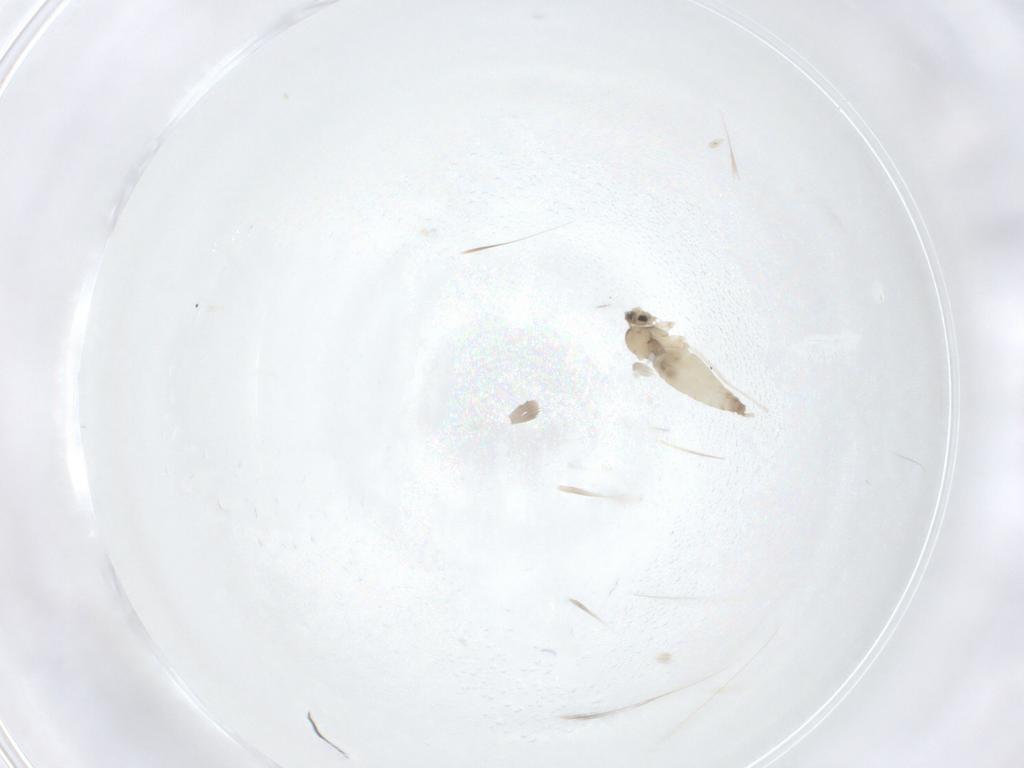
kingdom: Animalia
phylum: Arthropoda
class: Insecta
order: Diptera
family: Cecidomyiidae
